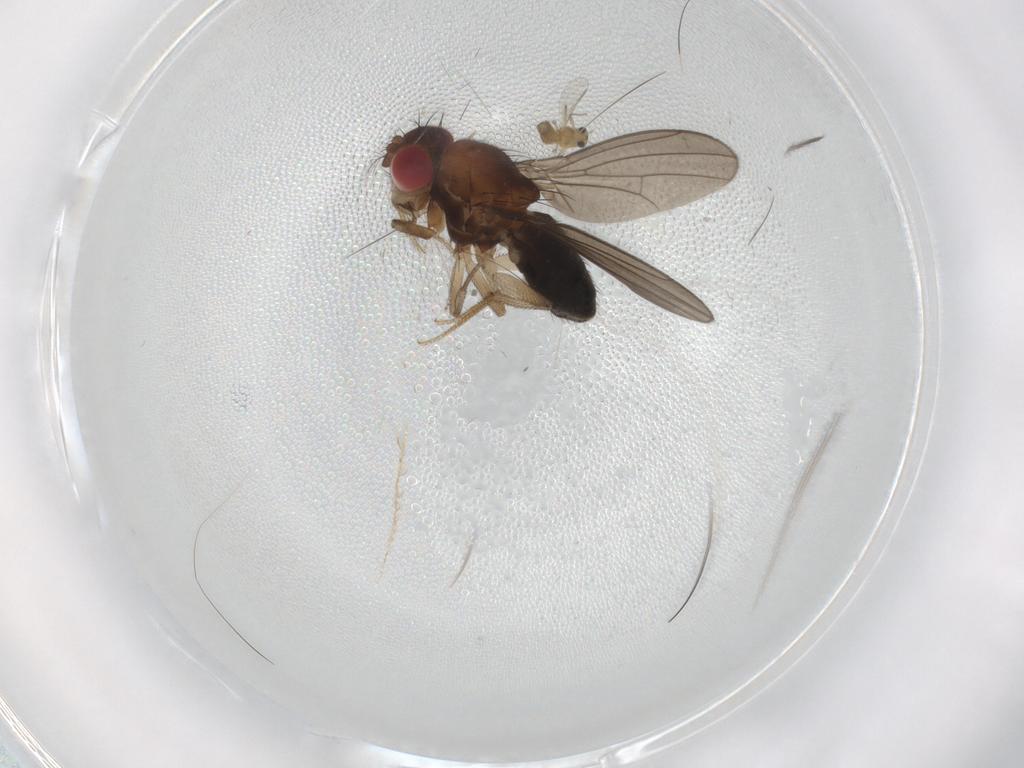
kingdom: Animalia
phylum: Arthropoda
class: Insecta
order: Diptera
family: Drosophilidae
